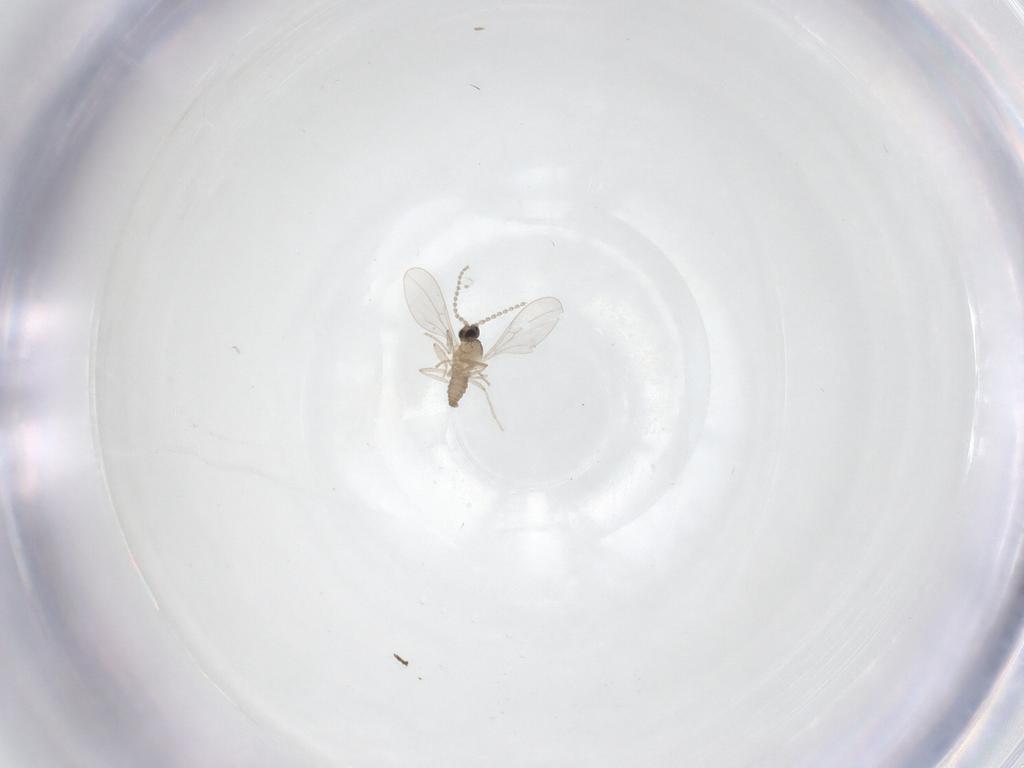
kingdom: Animalia
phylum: Arthropoda
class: Insecta
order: Diptera
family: Cecidomyiidae
